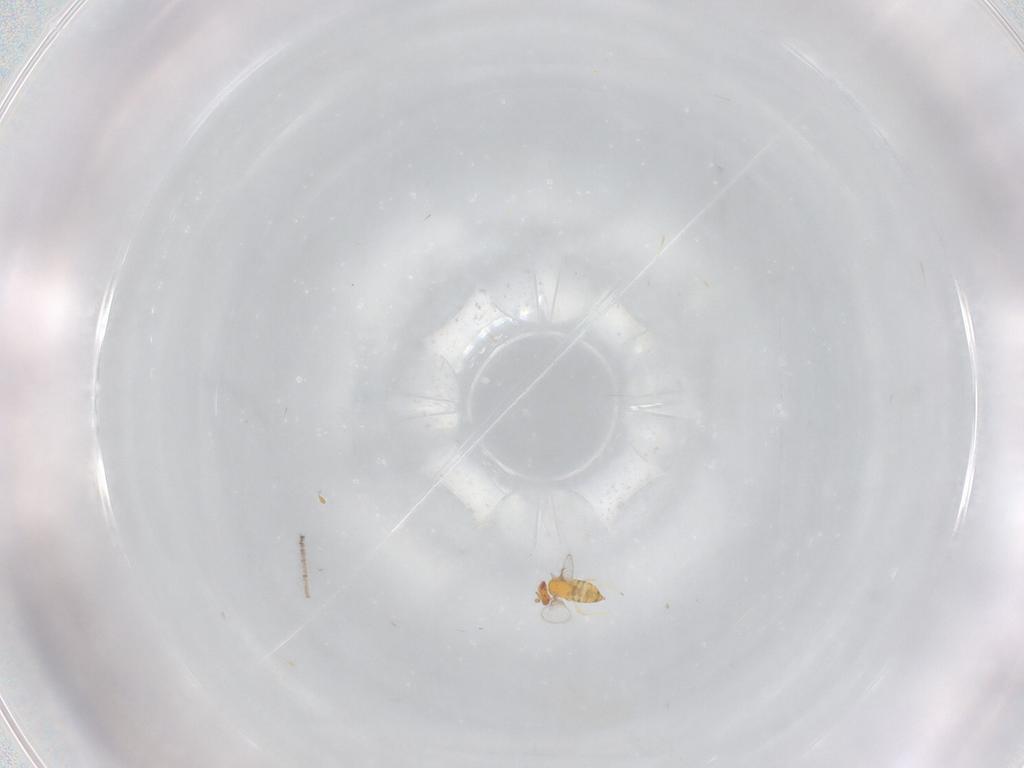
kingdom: Animalia
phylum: Arthropoda
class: Insecta
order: Hymenoptera
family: Trichogrammatidae
